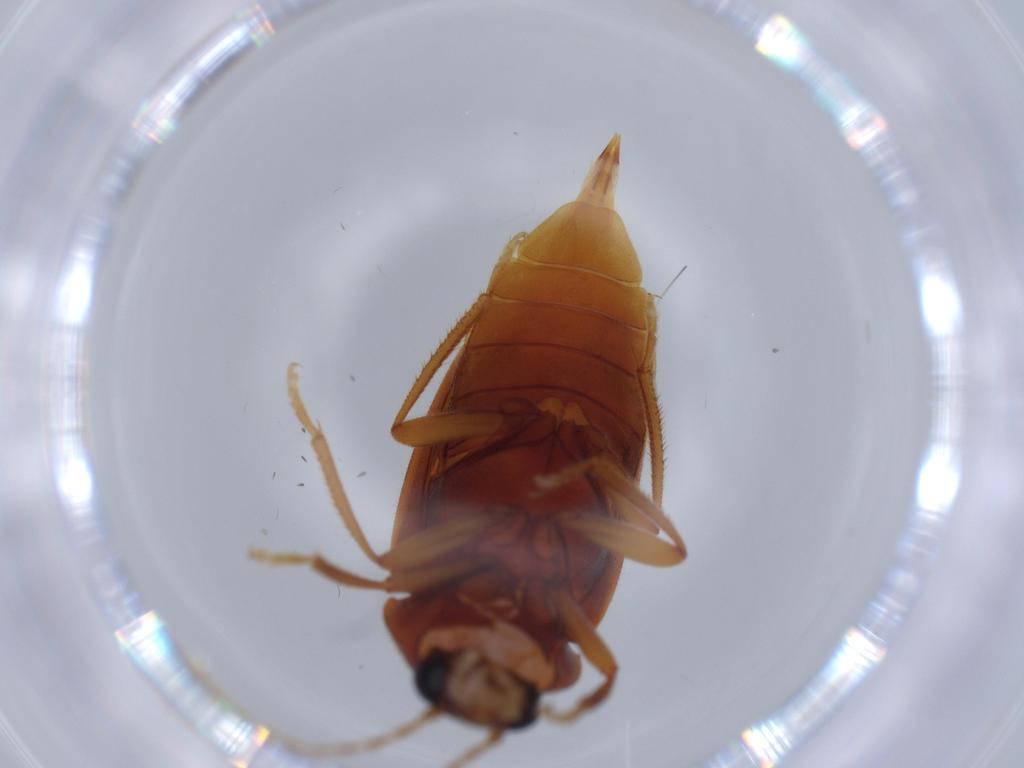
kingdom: Animalia
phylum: Arthropoda
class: Insecta
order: Coleoptera
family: Ptilodactylidae
